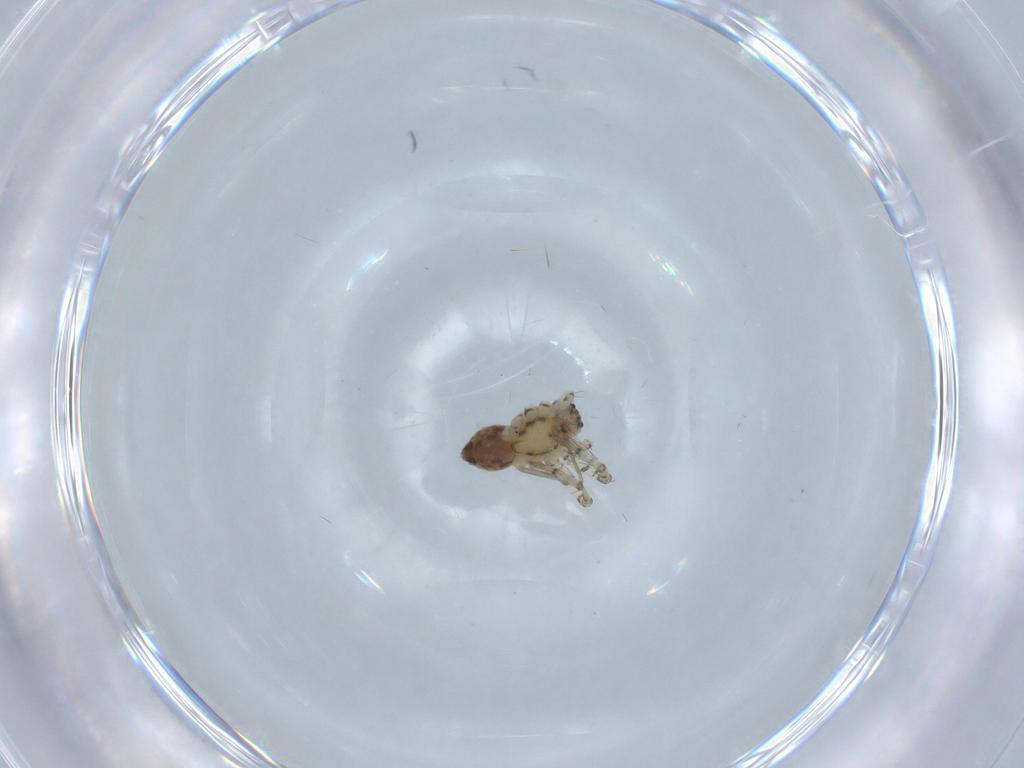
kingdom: Animalia
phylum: Arthropoda
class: Arachnida
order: Araneae
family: Trechaleidae
